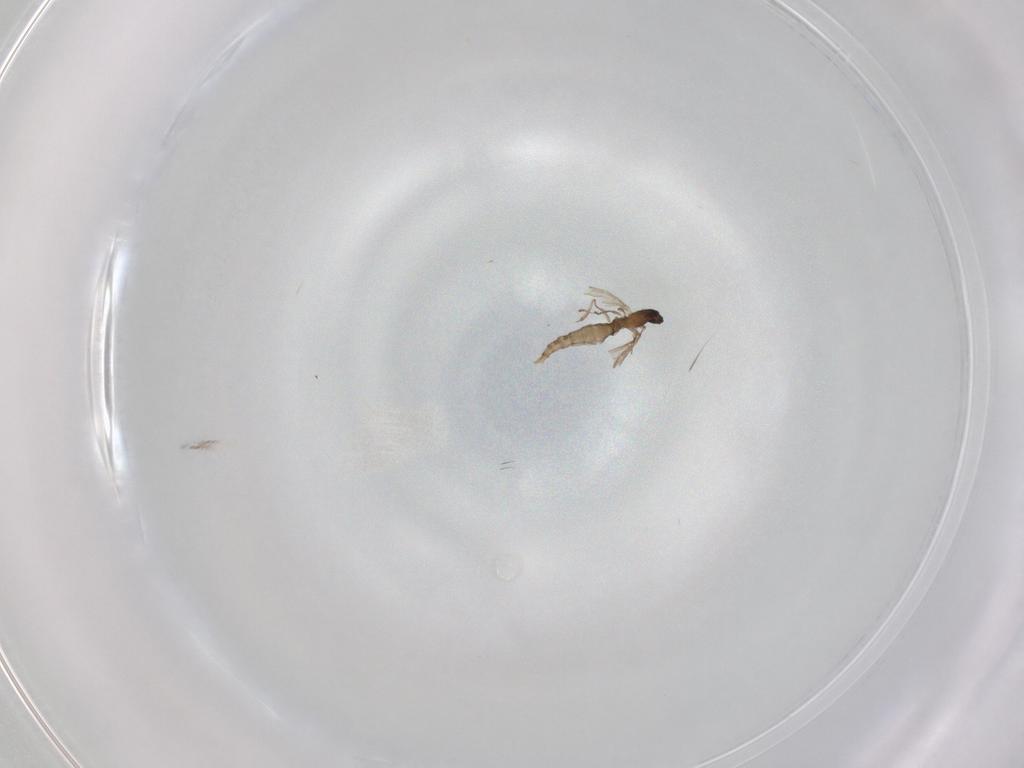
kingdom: Animalia
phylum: Arthropoda
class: Insecta
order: Diptera
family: Cecidomyiidae
